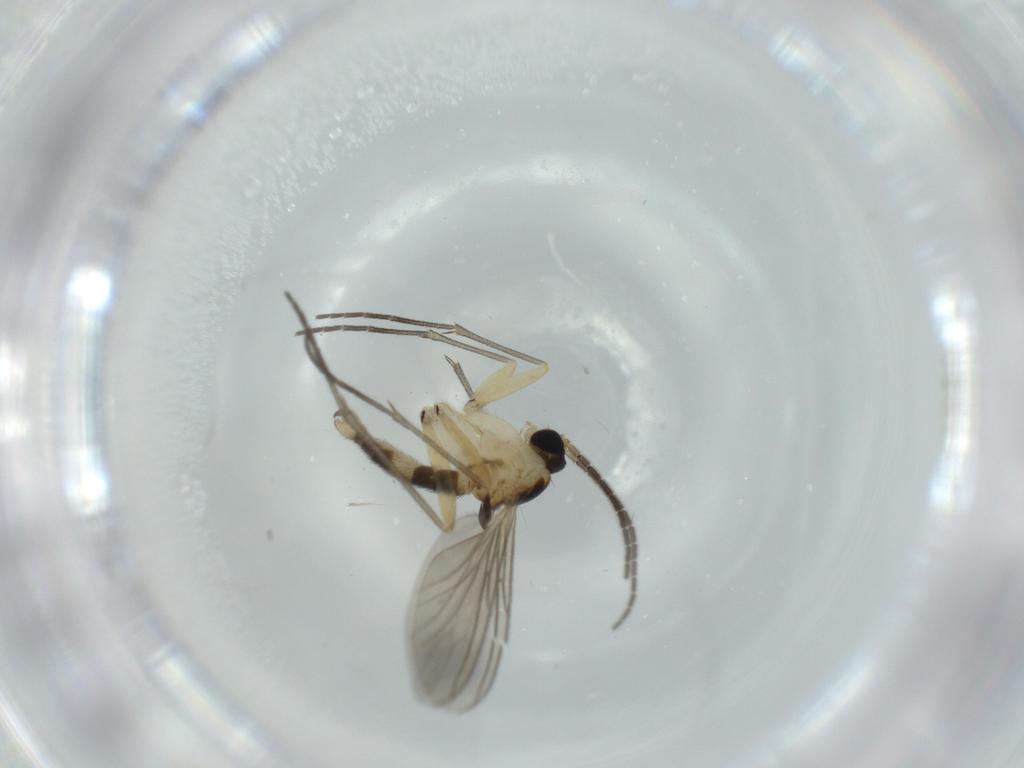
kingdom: Animalia
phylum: Arthropoda
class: Insecta
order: Diptera
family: Sciaridae
